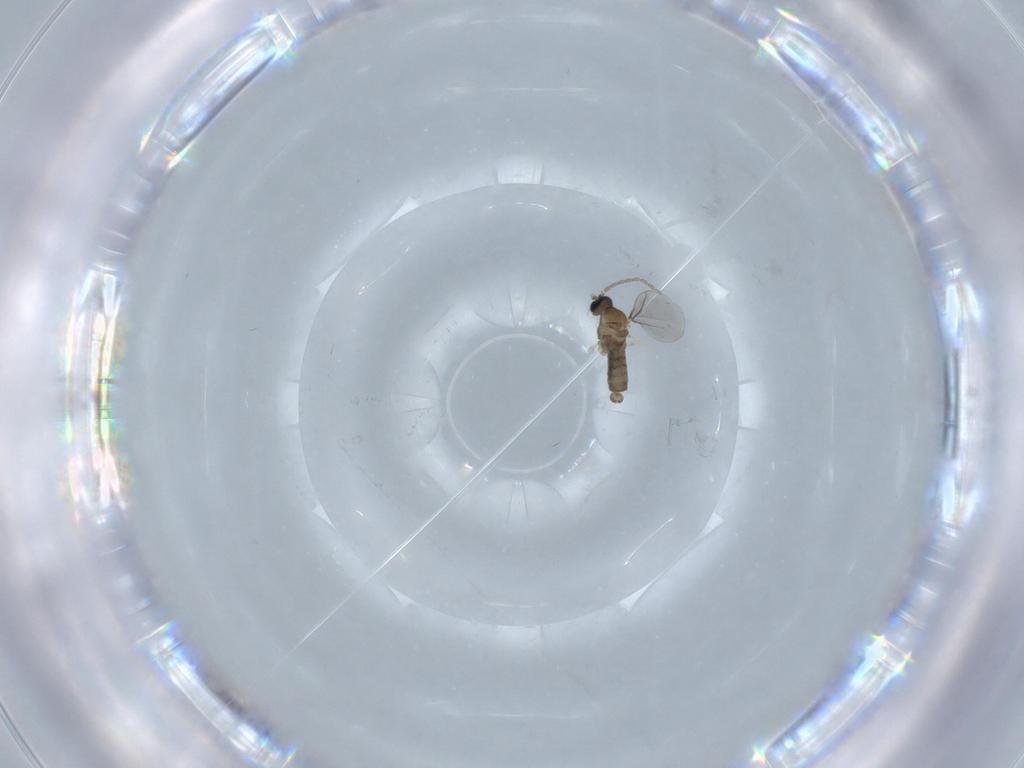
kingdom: Animalia
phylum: Arthropoda
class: Insecta
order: Diptera
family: Cecidomyiidae
